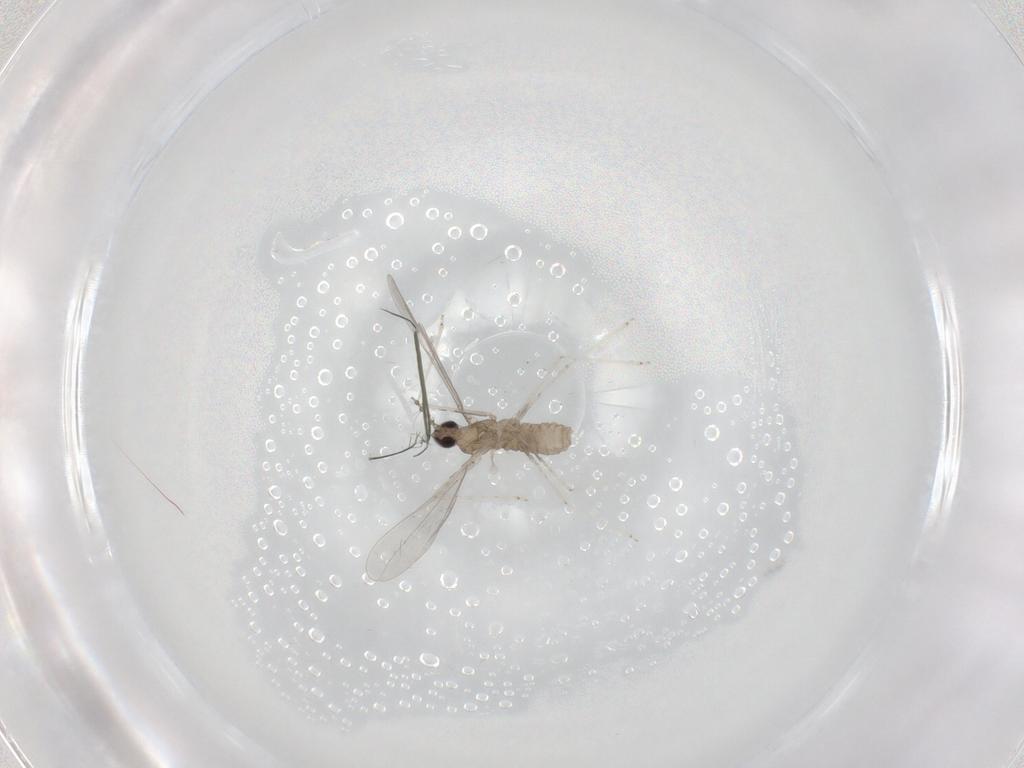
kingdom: Animalia
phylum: Arthropoda
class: Insecta
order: Diptera
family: Cecidomyiidae
